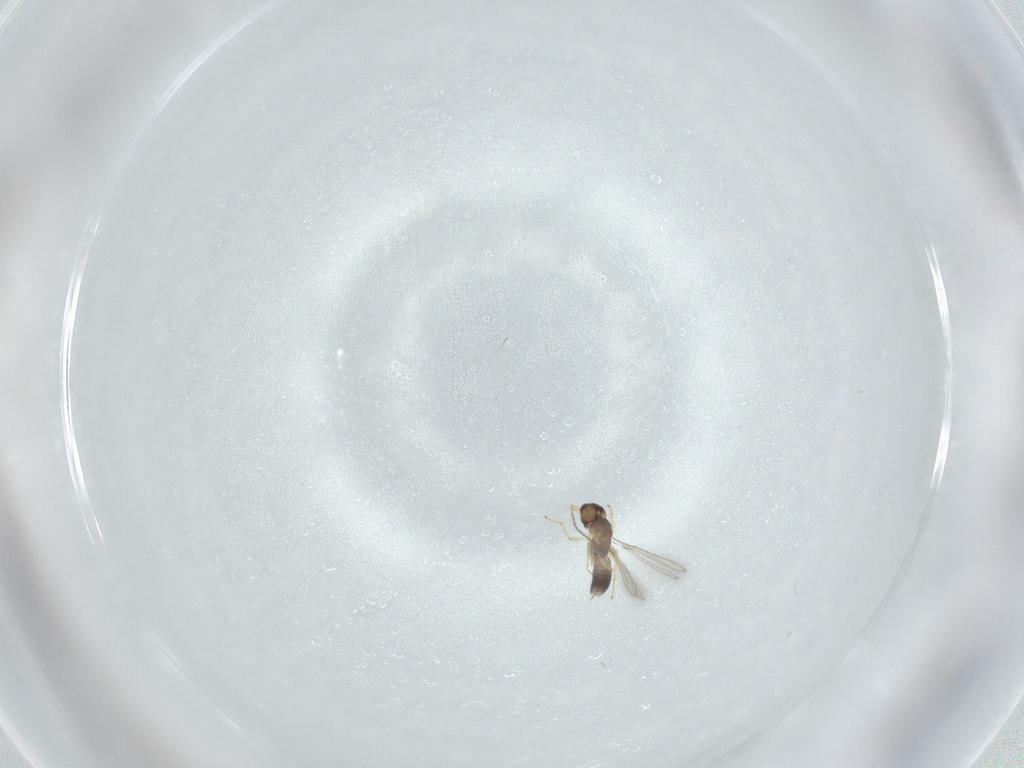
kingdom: Animalia
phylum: Arthropoda
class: Insecta
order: Hymenoptera
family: Mymaridae
